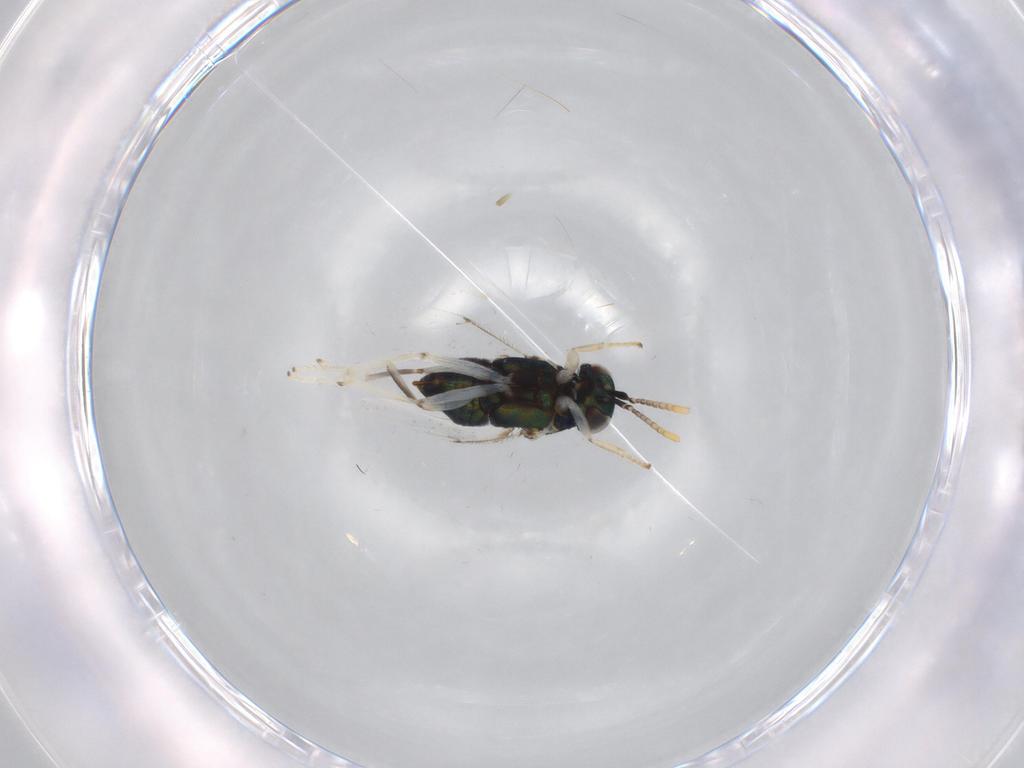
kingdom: Animalia
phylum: Arthropoda
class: Insecta
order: Hymenoptera
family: Encyrtidae
